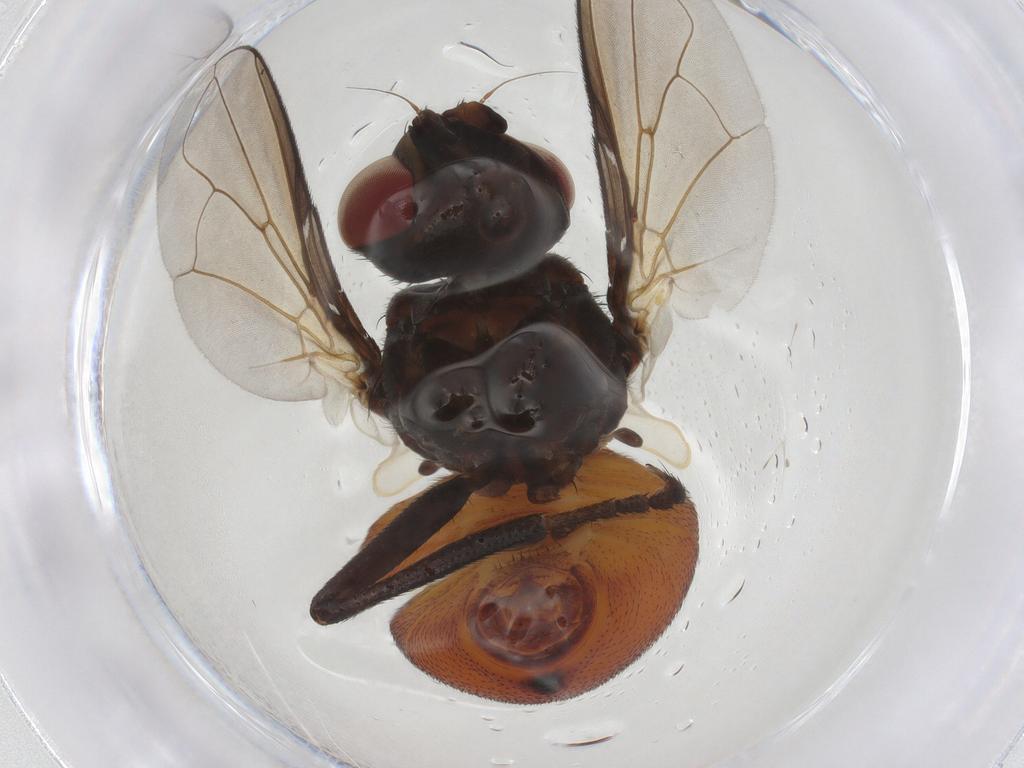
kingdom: Animalia
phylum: Arthropoda
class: Insecta
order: Diptera
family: Tachinidae
